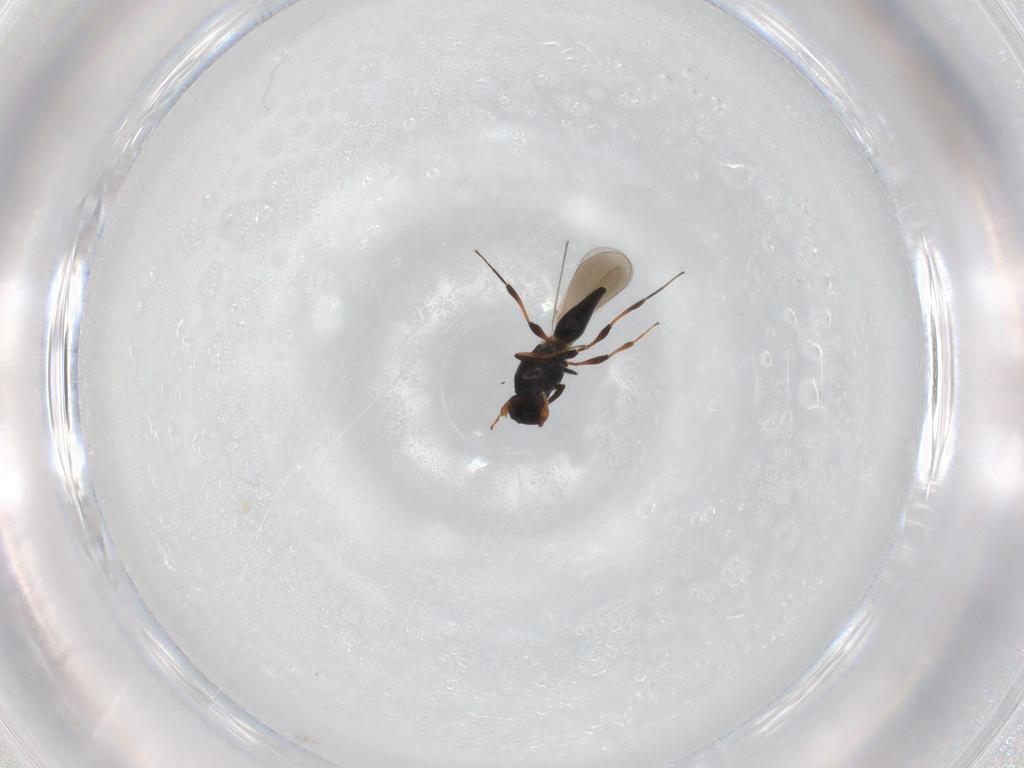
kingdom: Animalia
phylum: Arthropoda
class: Insecta
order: Hymenoptera
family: Platygastridae
